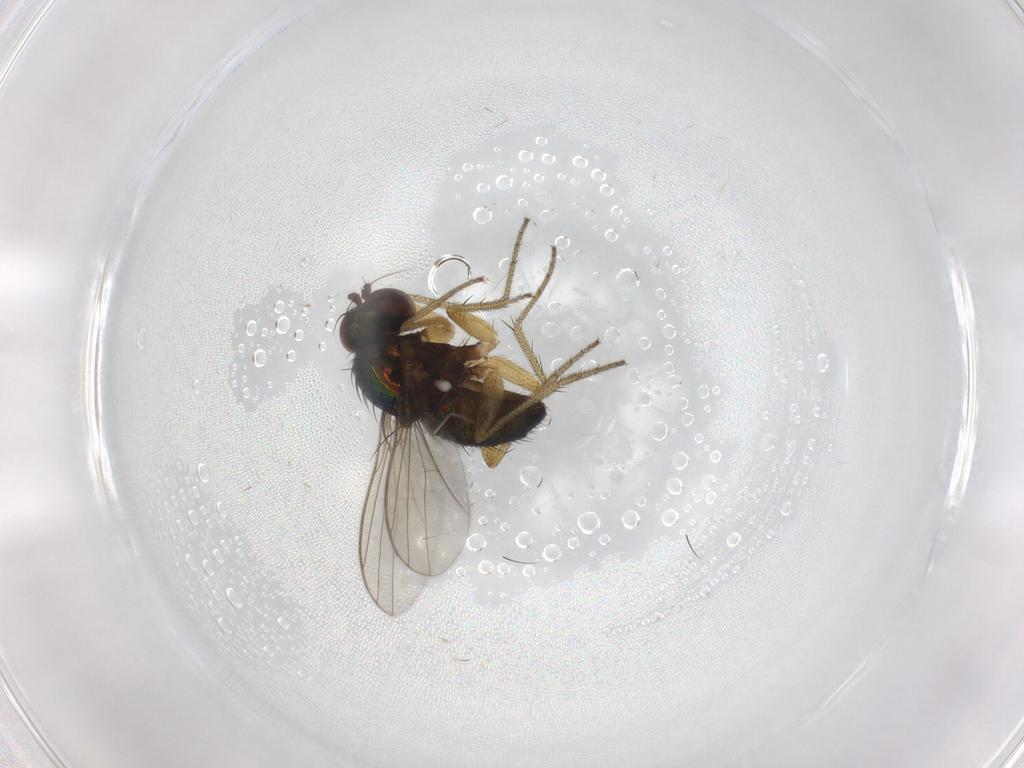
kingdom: Animalia
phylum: Arthropoda
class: Insecta
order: Diptera
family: Dolichopodidae
